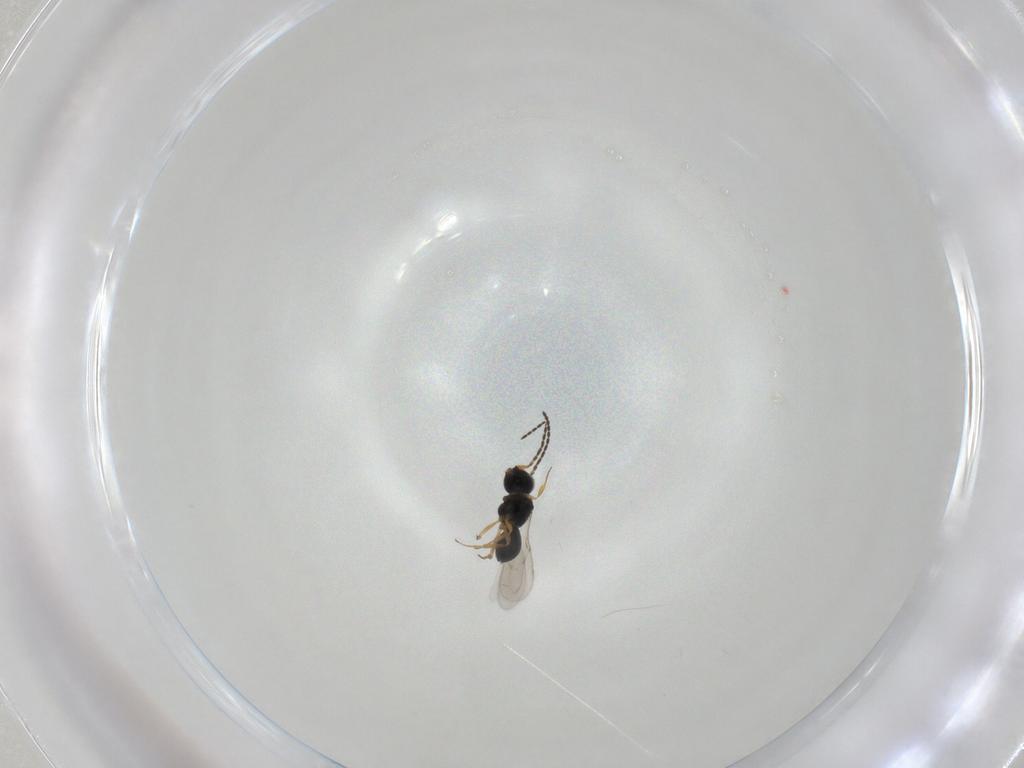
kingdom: Animalia
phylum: Arthropoda
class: Insecta
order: Hymenoptera
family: Scelionidae
